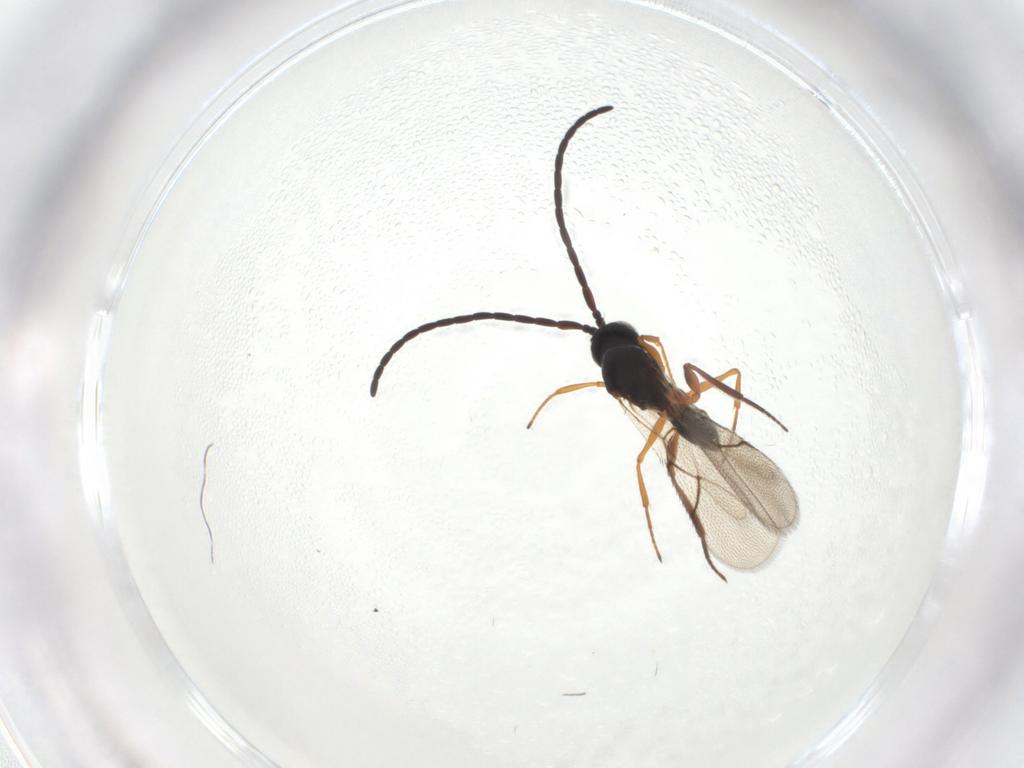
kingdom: Animalia
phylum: Arthropoda
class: Insecta
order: Hymenoptera
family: Figitidae
